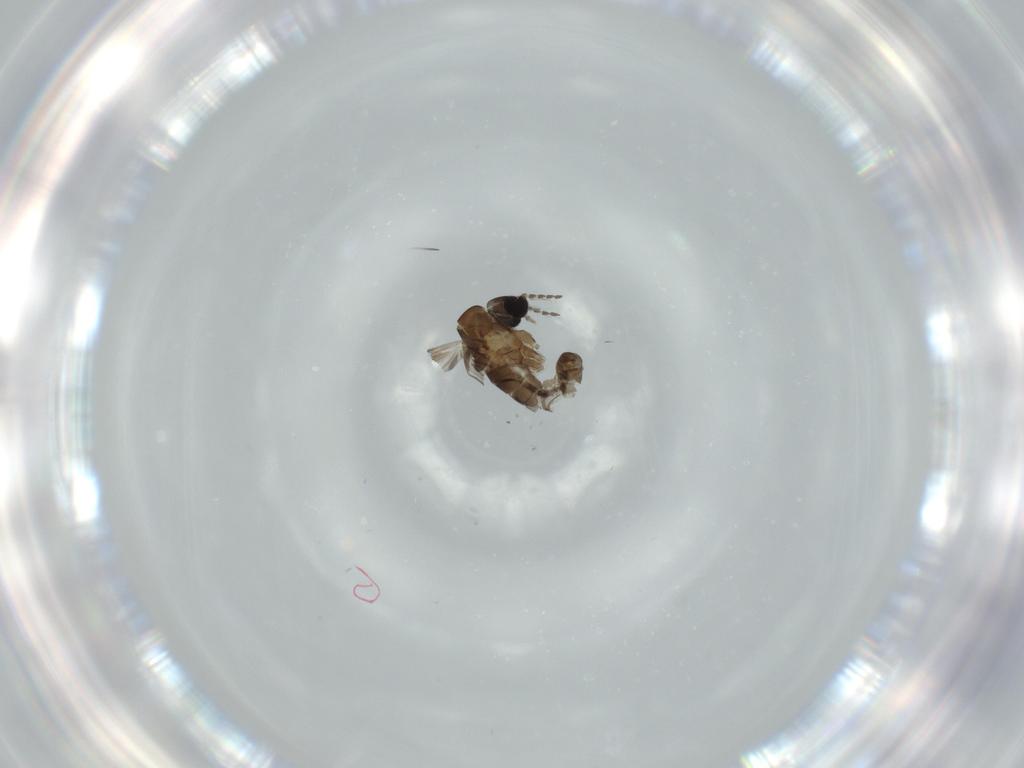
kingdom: Animalia
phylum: Arthropoda
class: Insecta
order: Diptera
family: Psychodidae
